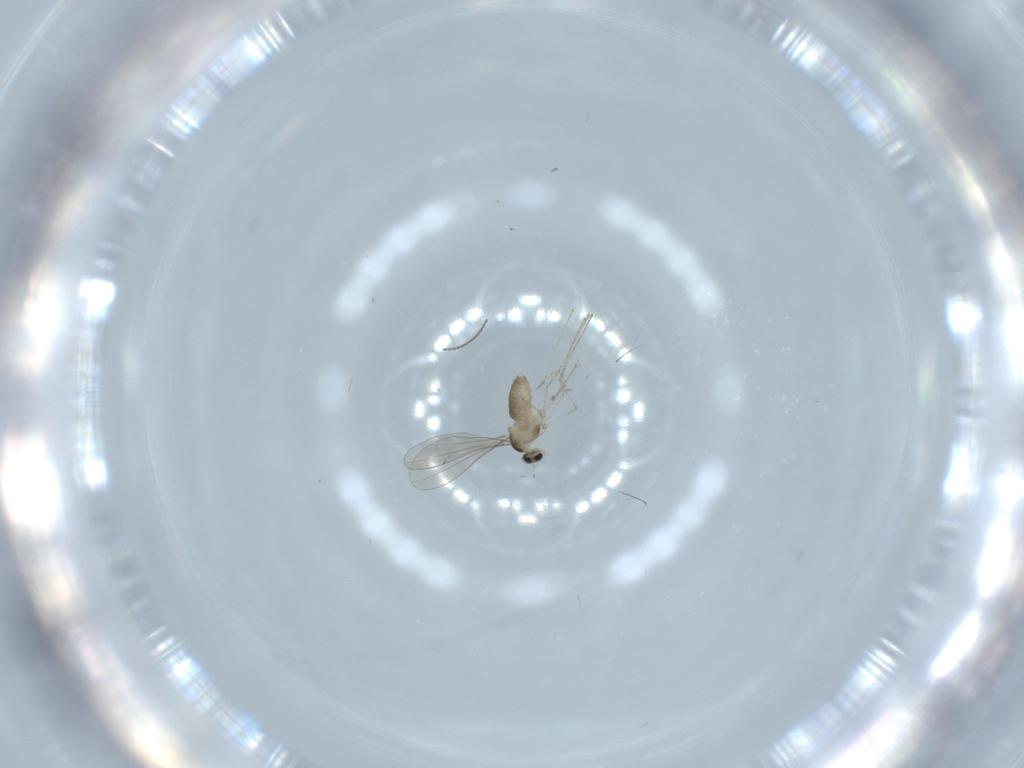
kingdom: Animalia
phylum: Arthropoda
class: Insecta
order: Diptera
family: Cecidomyiidae
